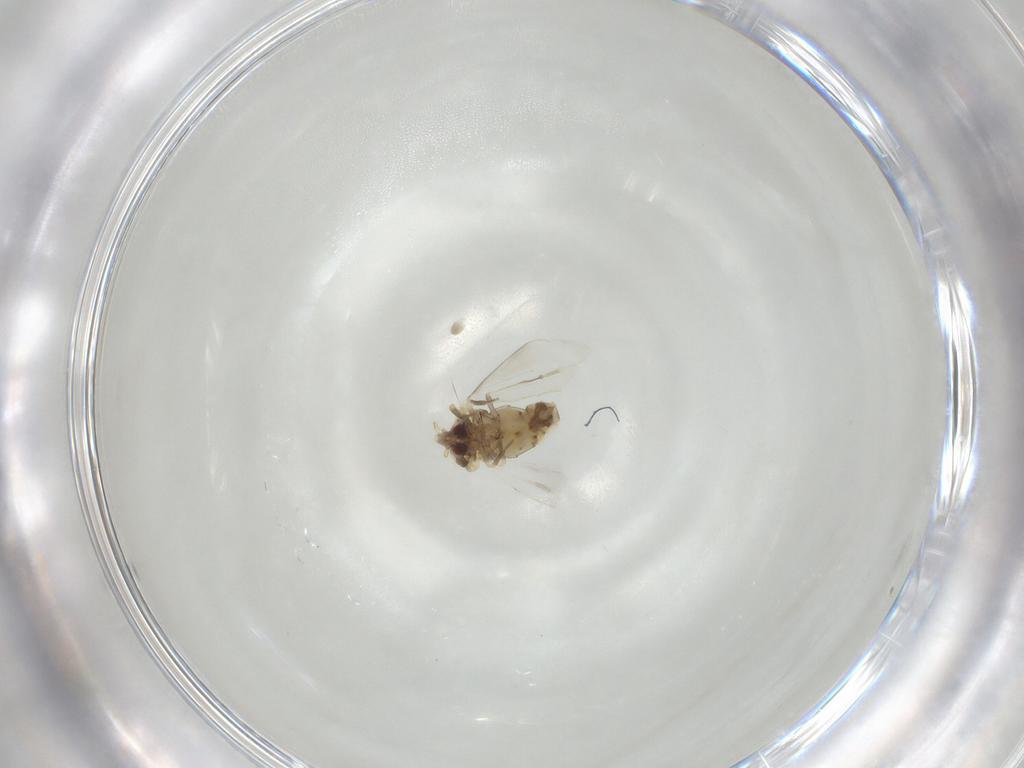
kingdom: Animalia
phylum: Arthropoda
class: Insecta
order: Hemiptera
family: Aleyrodidae
